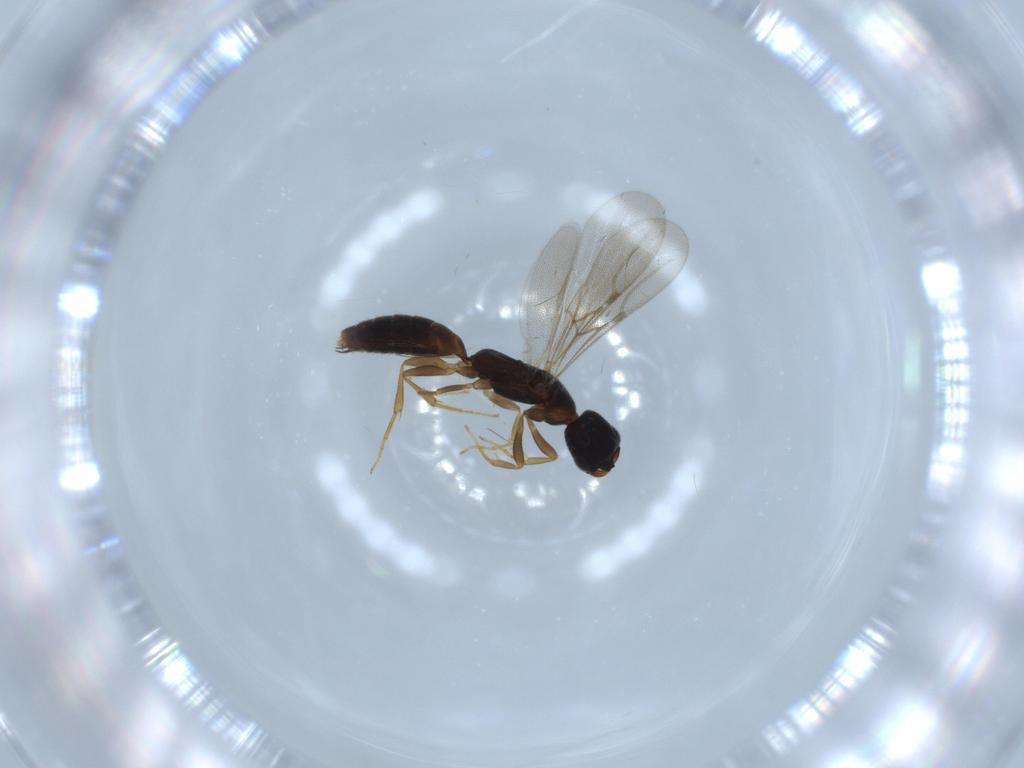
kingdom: Animalia
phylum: Arthropoda
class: Insecta
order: Hymenoptera
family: Bethylidae
